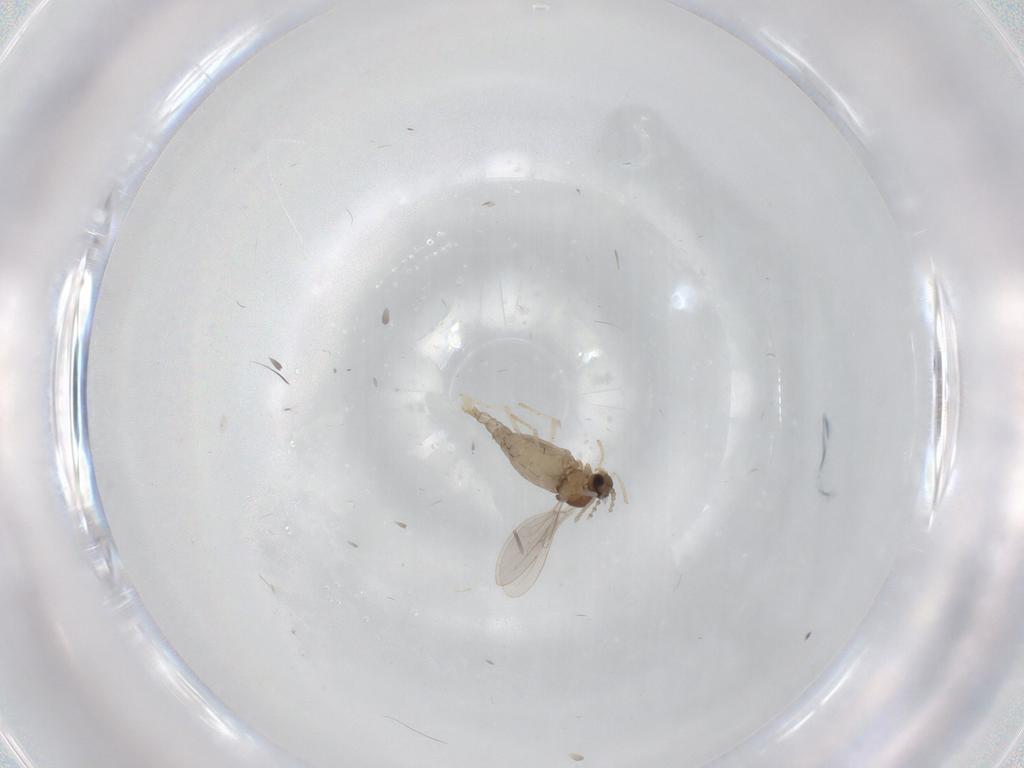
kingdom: Animalia
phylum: Arthropoda
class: Insecta
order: Diptera
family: Cecidomyiidae
